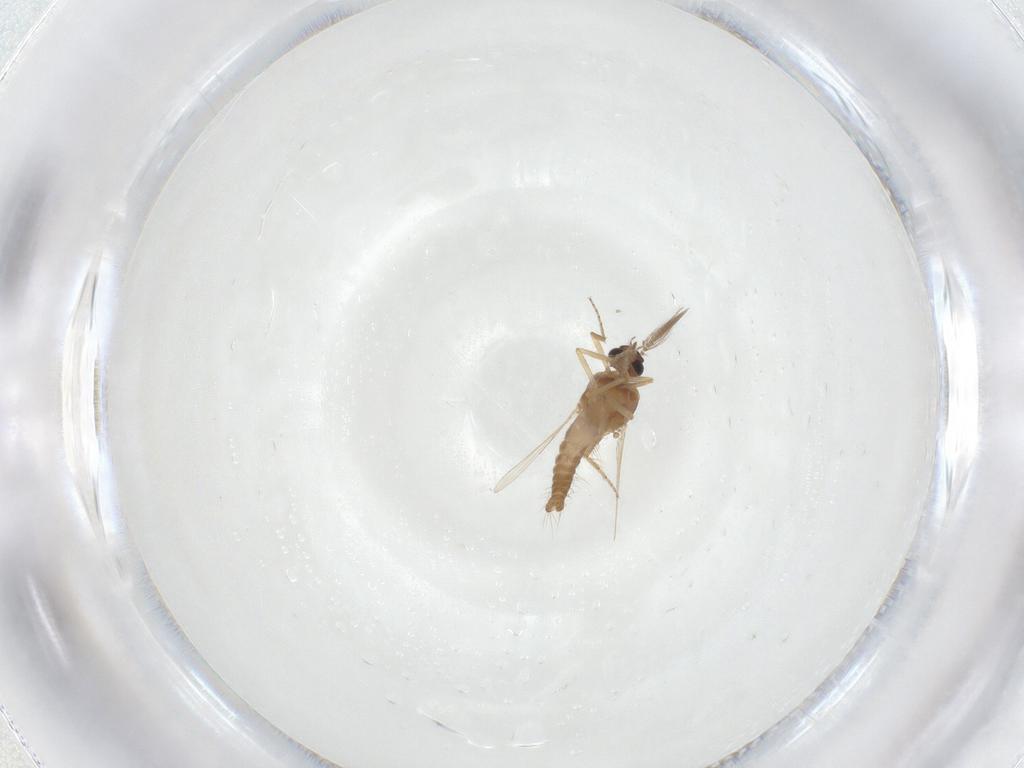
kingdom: Animalia
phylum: Arthropoda
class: Insecta
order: Diptera
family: Ceratopogonidae
